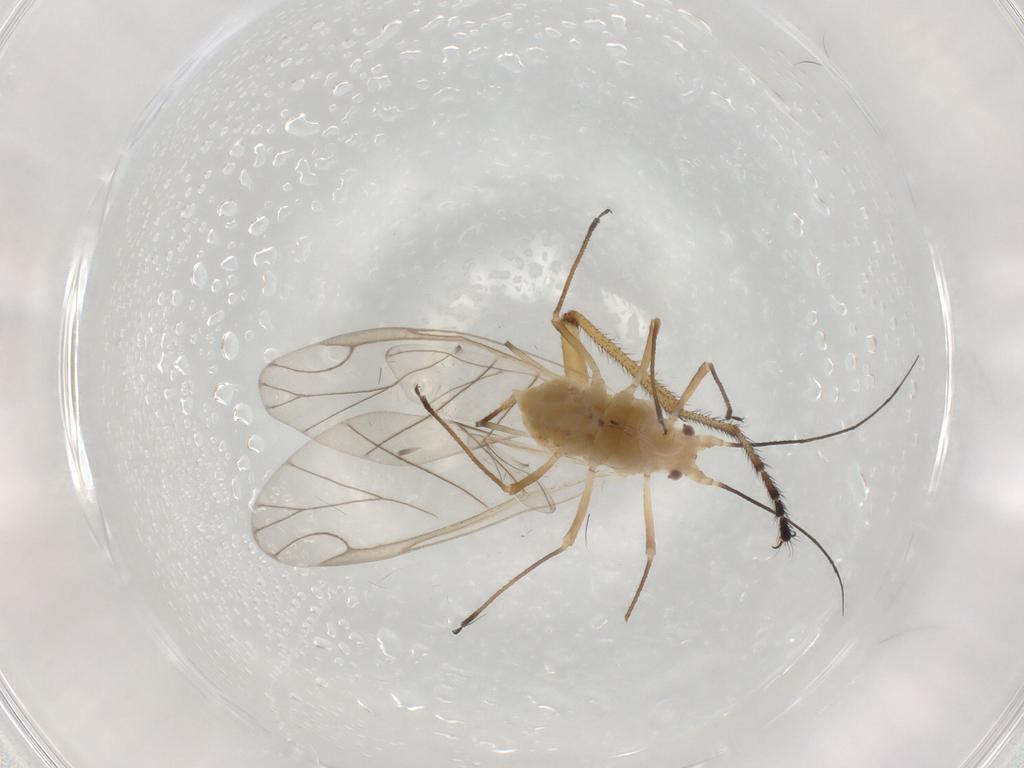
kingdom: Animalia
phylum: Arthropoda
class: Insecta
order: Hemiptera
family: Aphididae
